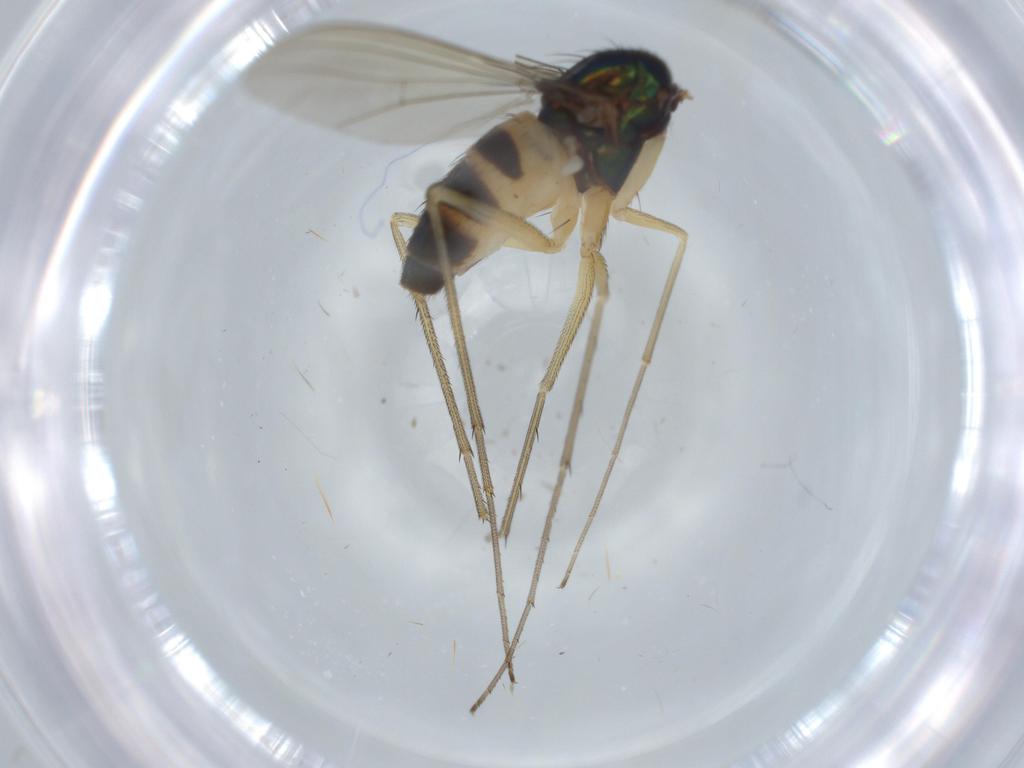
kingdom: Animalia
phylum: Arthropoda
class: Insecta
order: Diptera
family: Dolichopodidae
